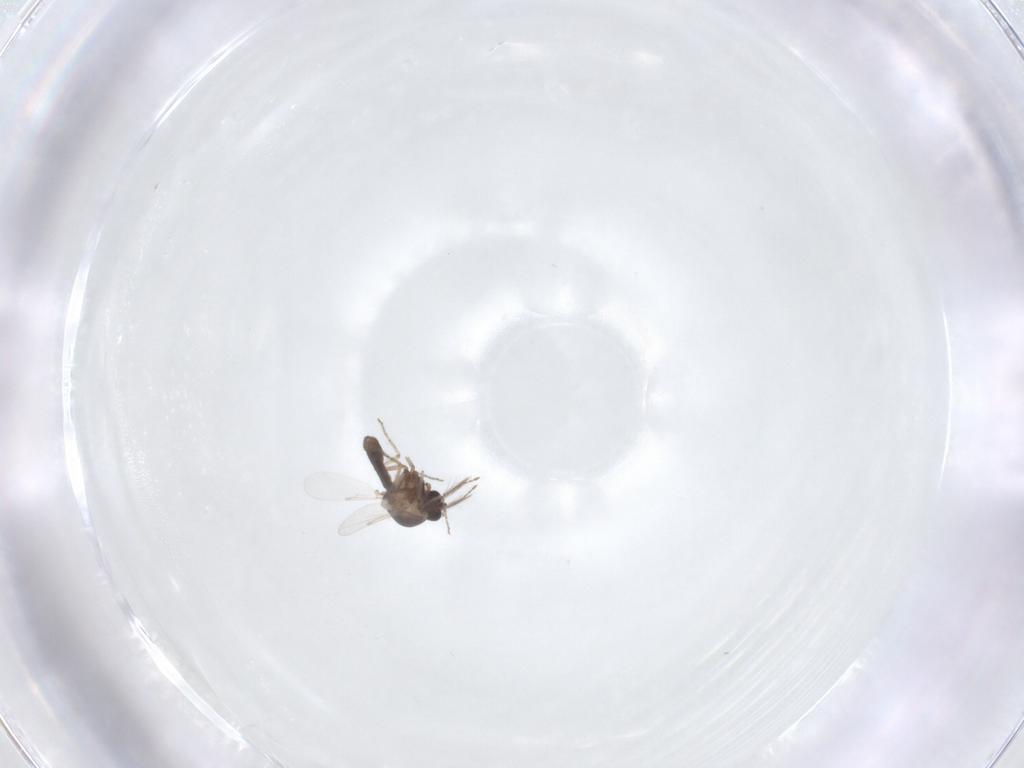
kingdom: Animalia
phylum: Arthropoda
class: Insecta
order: Diptera
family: Ceratopogonidae
